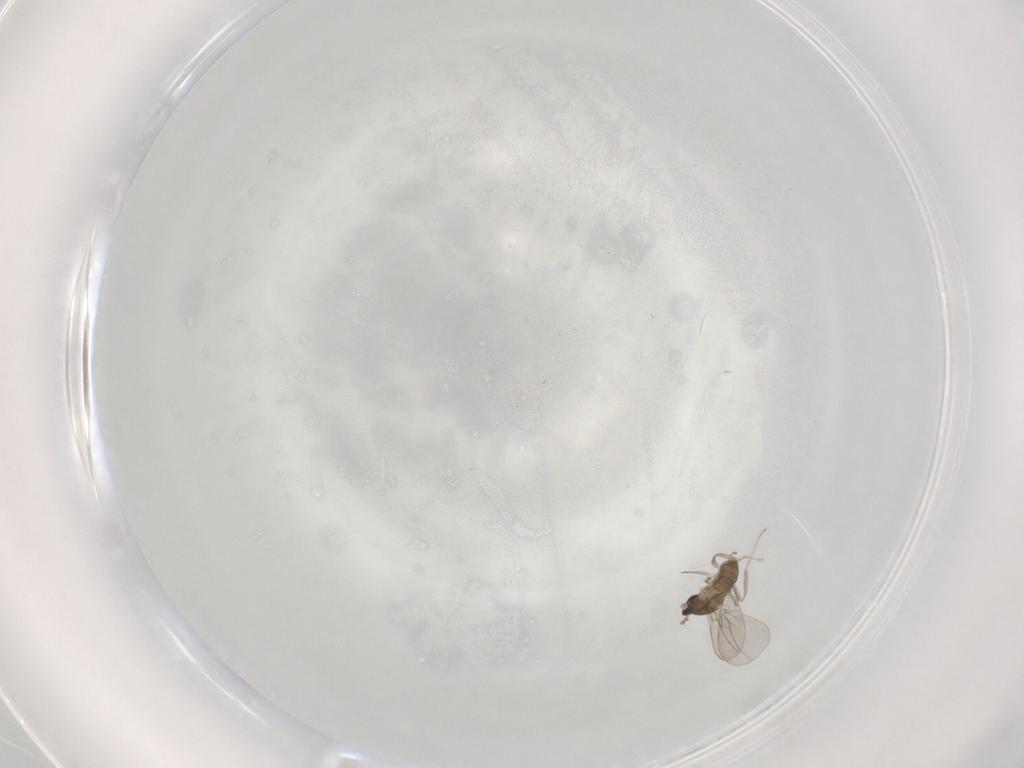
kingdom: Animalia
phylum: Arthropoda
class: Insecta
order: Diptera
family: Cecidomyiidae
